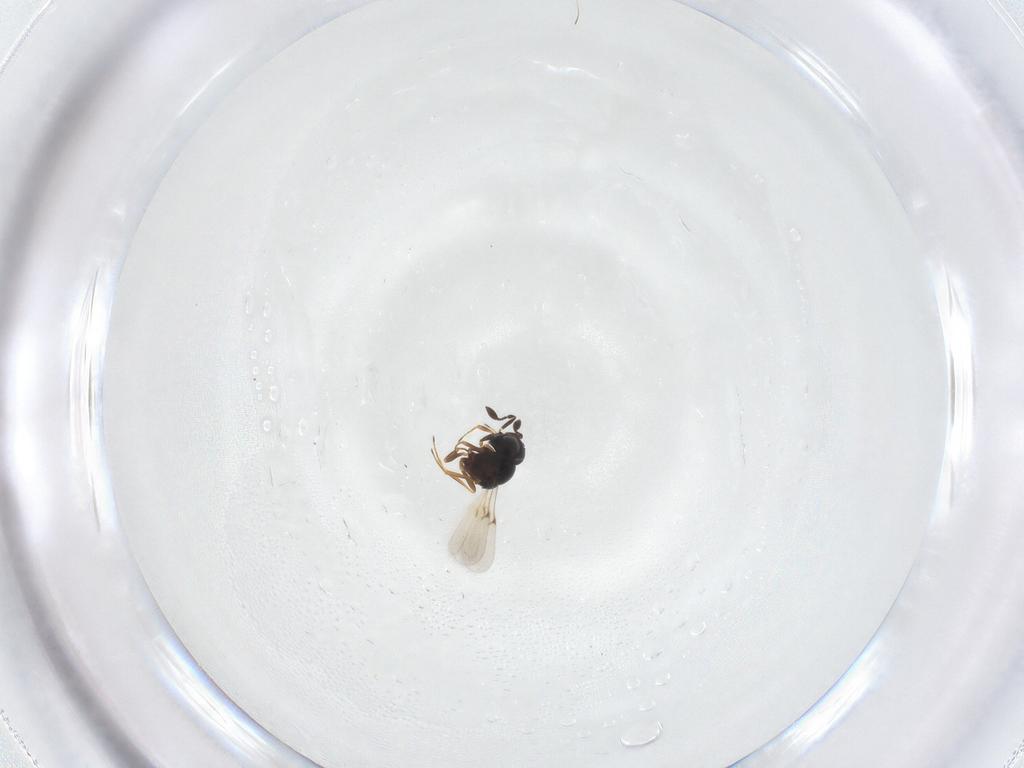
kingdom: Animalia
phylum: Arthropoda
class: Arachnida
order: Araneae
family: Pholcidae
